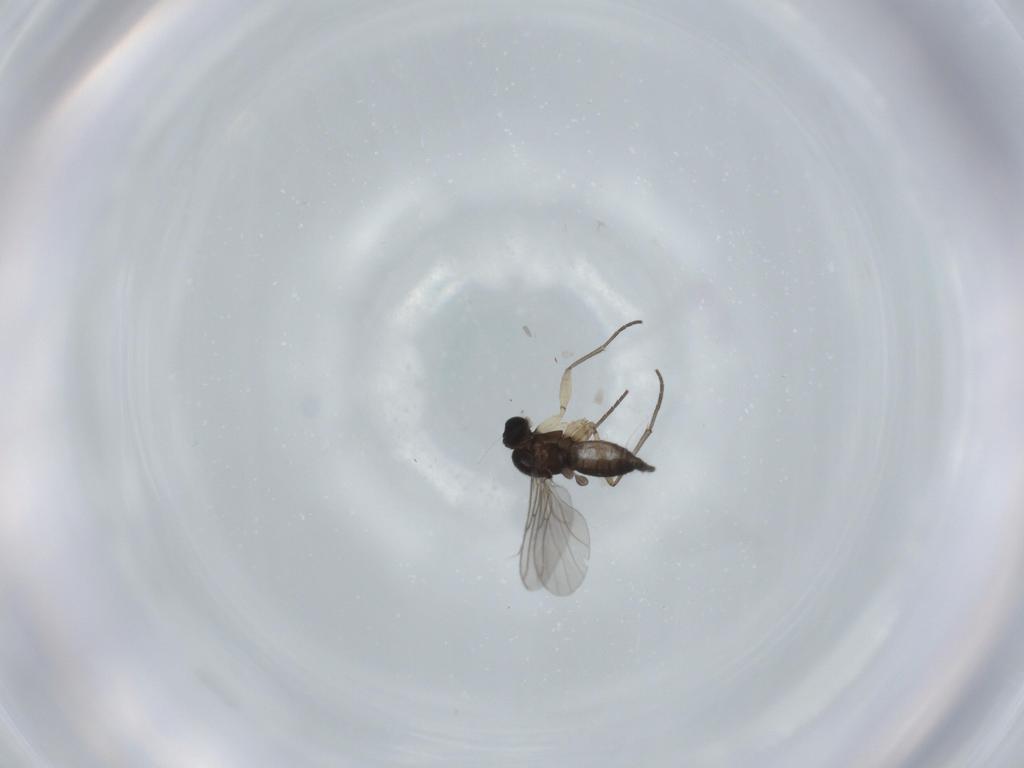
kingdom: Animalia
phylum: Arthropoda
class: Insecta
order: Diptera
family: Sciaridae
